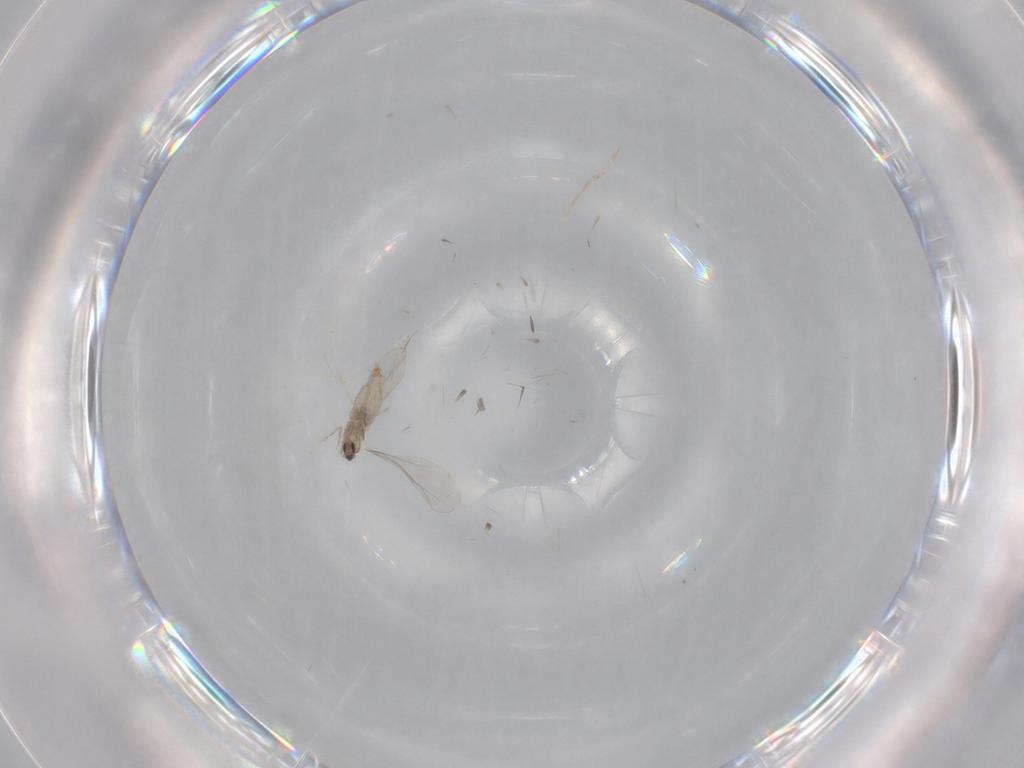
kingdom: Animalia
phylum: Arthropoda
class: Insecta
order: Diptera
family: Cecidomyiidae
